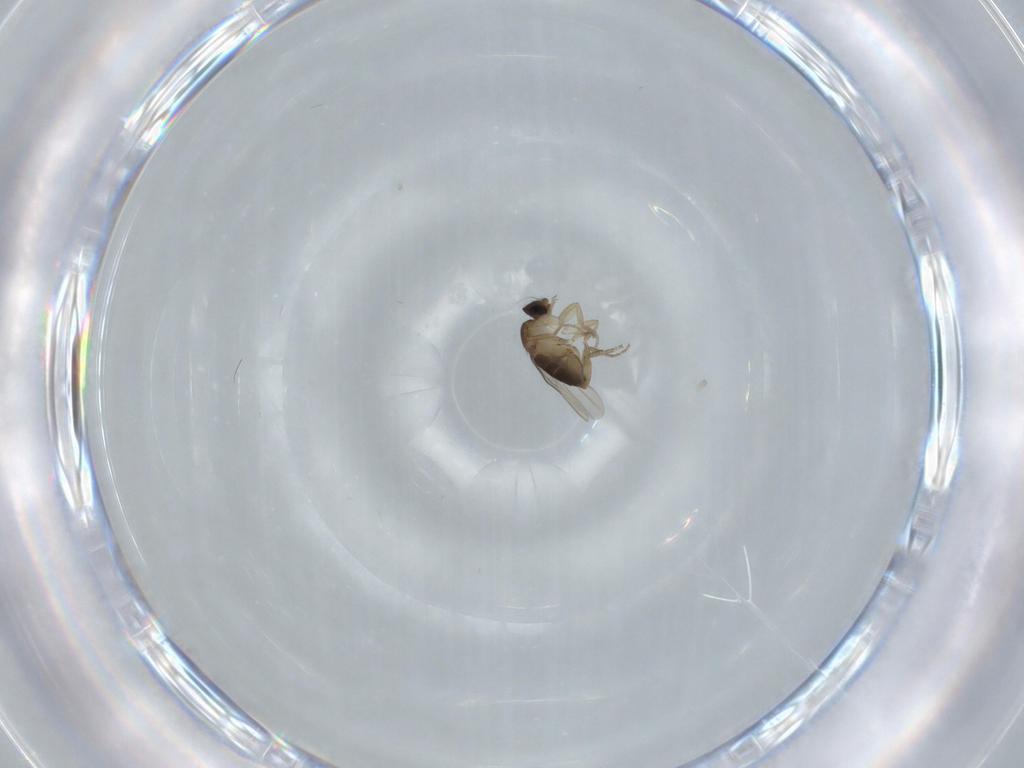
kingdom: Animalia
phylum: Arthropoda
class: Insecta
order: Diptera
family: Phoridae
